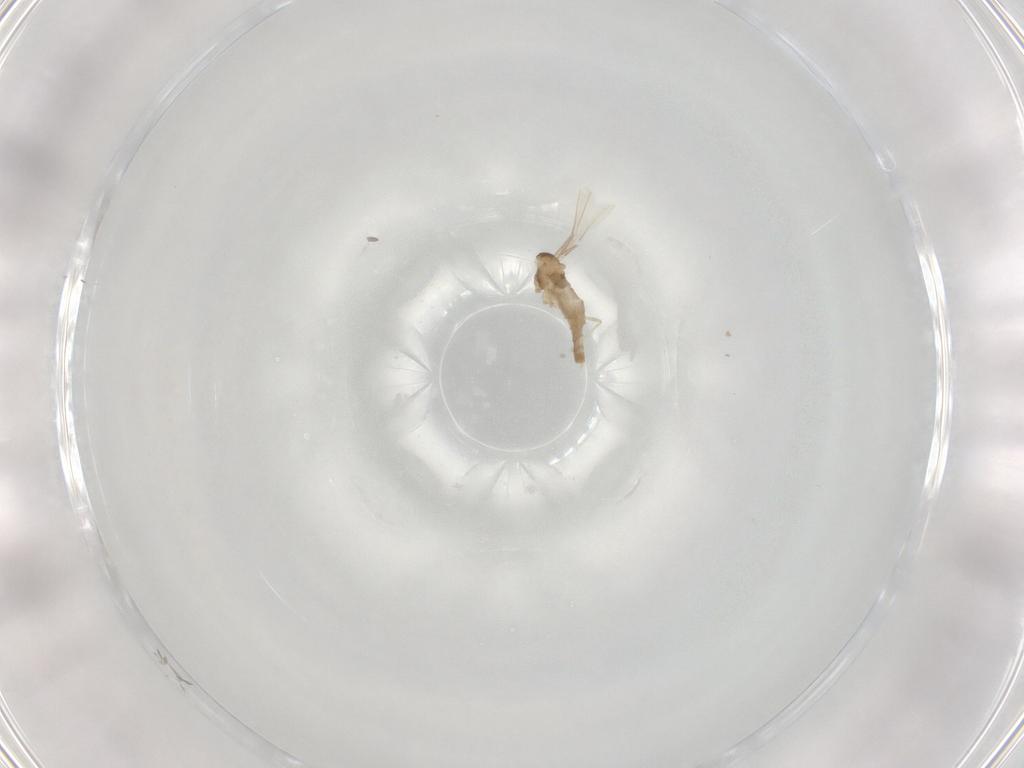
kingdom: Animalia
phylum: Arthropoda
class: Insecta
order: Diptera
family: Cecidomyiidae
